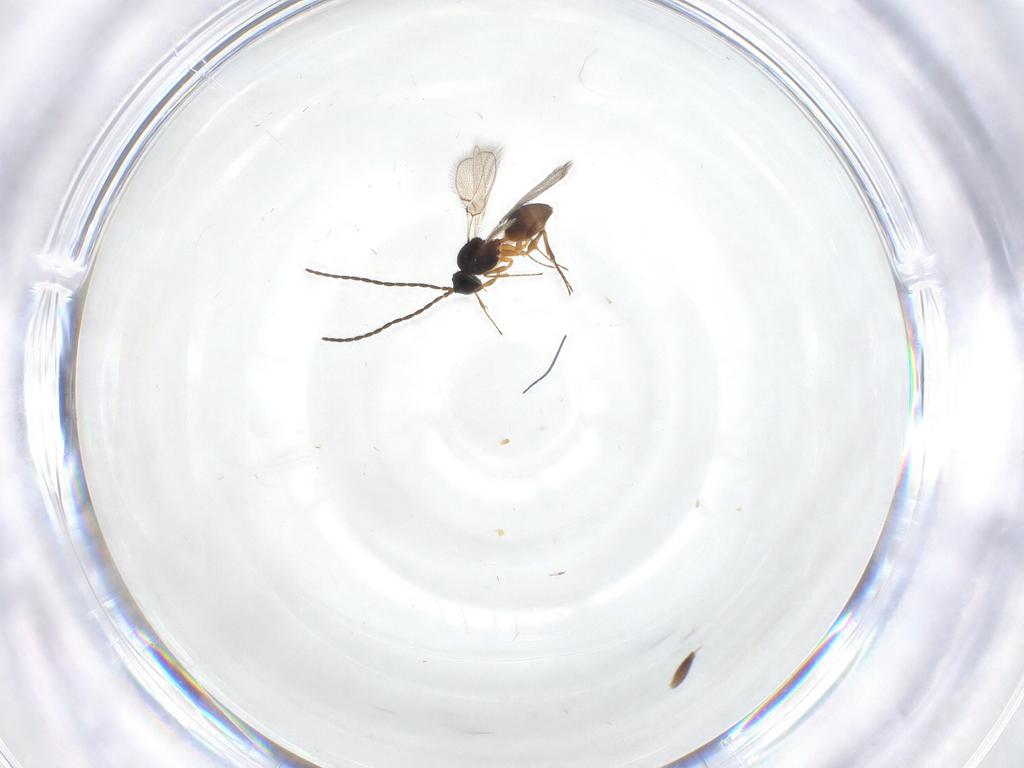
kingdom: Animalia
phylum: Arthropoda
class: Insecta
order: Hymenoptera
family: Figitidae
